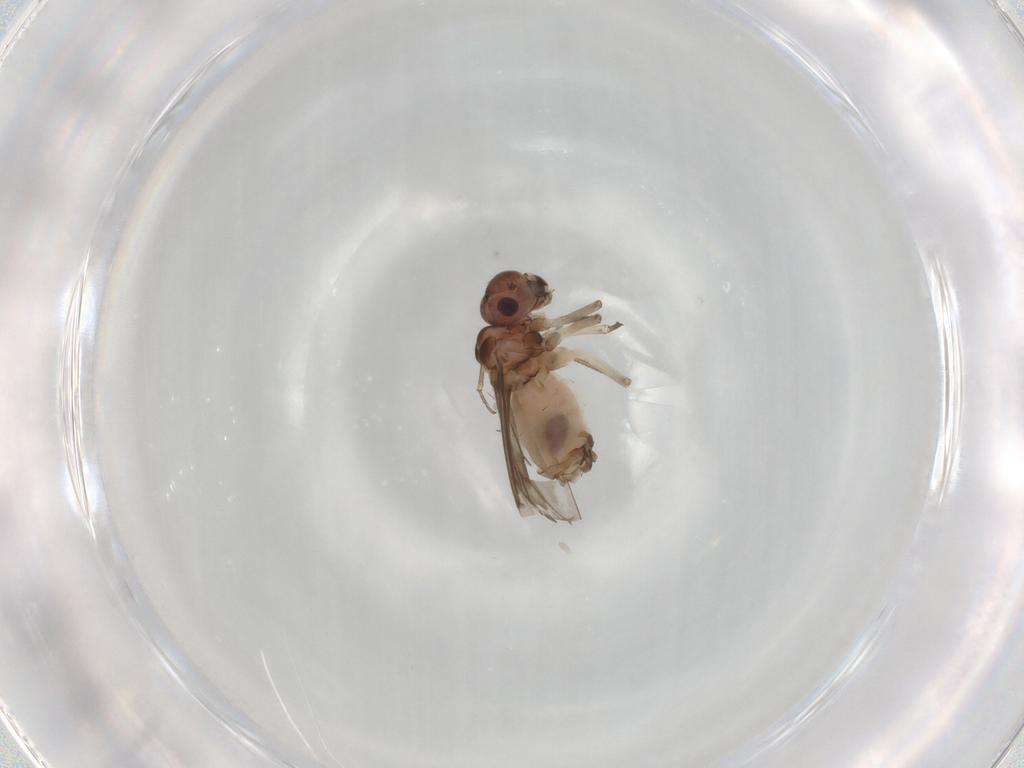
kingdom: Animalia
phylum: Arthropoda
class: Insecta
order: Psocodea
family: Peripsocidae
